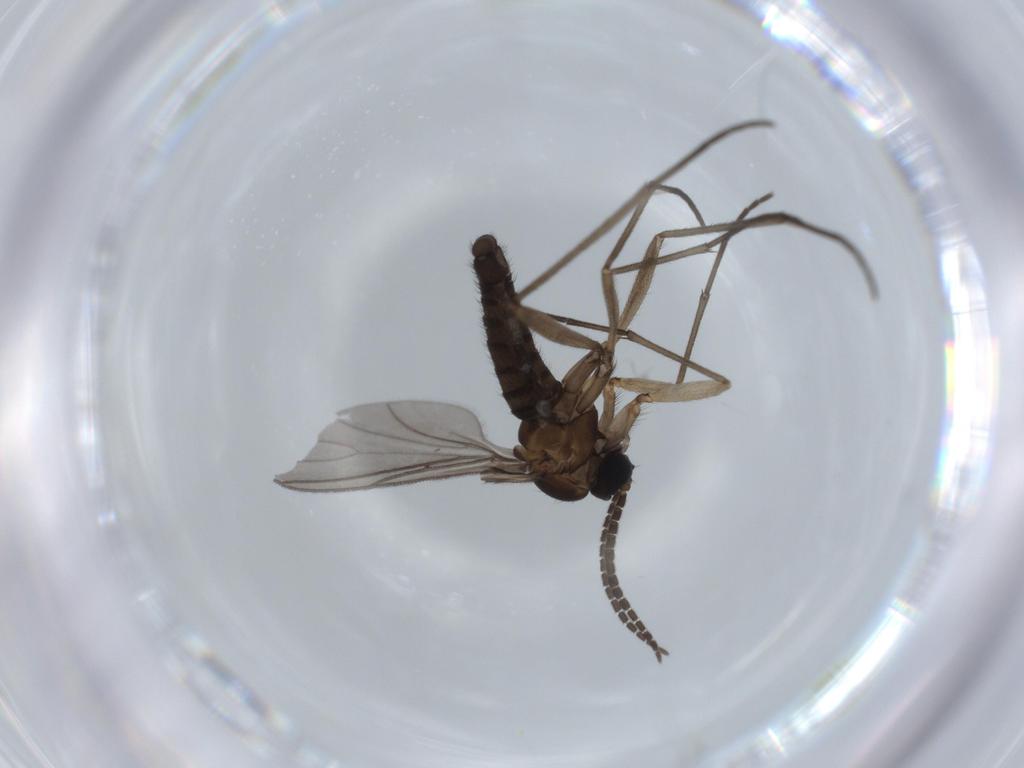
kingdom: Animalia
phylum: Arthropoda
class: Insecta
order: Diptera
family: Sciaridae
